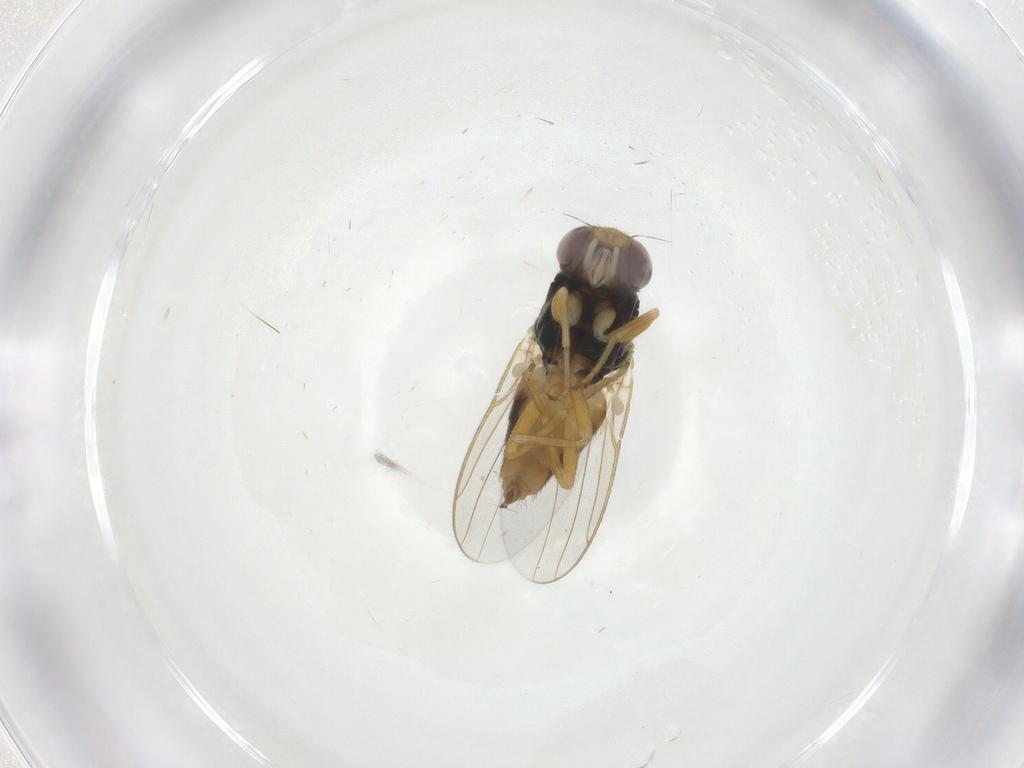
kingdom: Animalia
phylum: Arthropoda
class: Insecta
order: Diptera
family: Chloropidae
